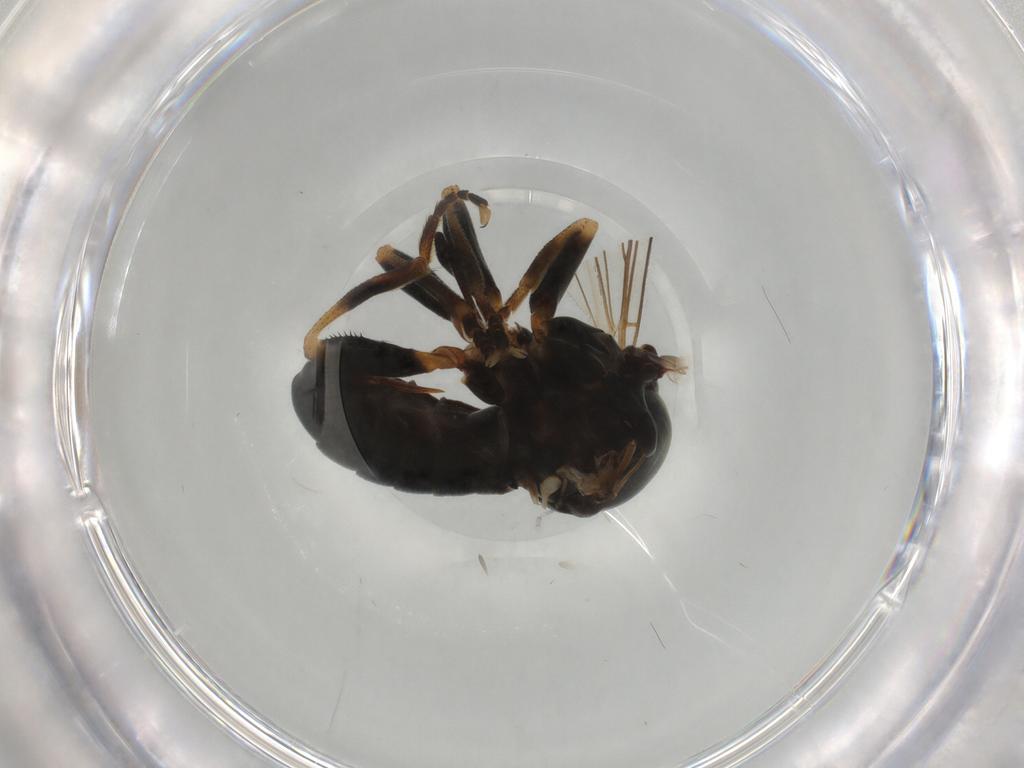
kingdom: Animalia
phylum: Arthropoda
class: Insecta
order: Diptera
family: Pipunculidae
